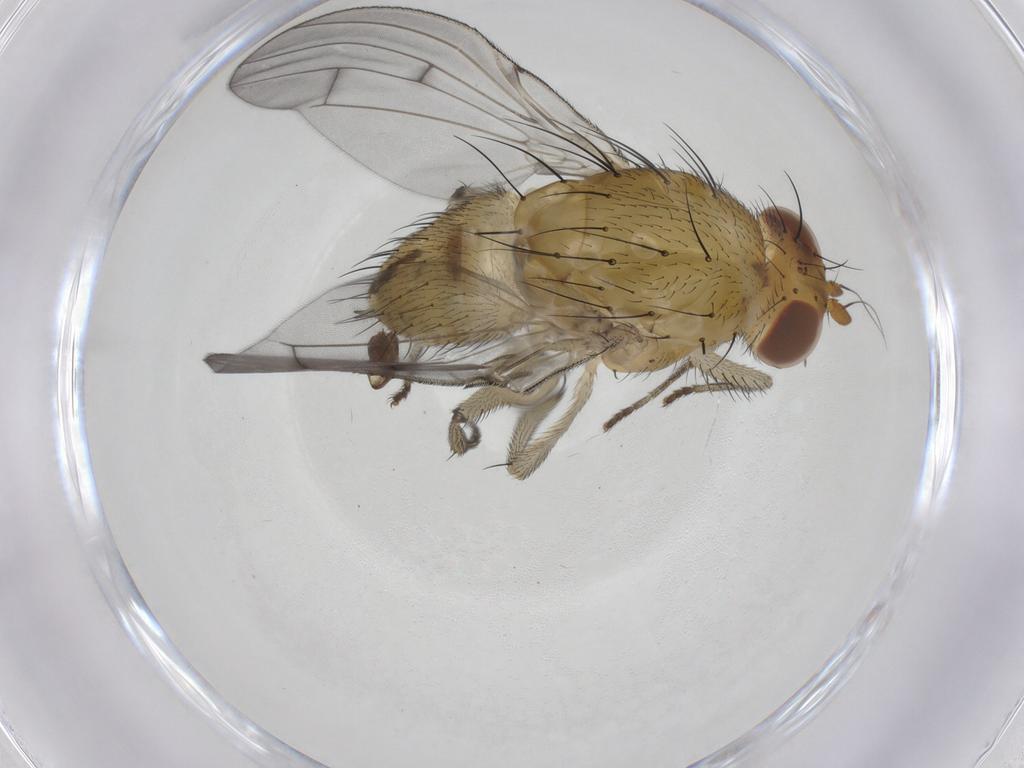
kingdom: Animalia
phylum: Arthropoda
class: Insecta
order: Diptera
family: Lauxaniidae
